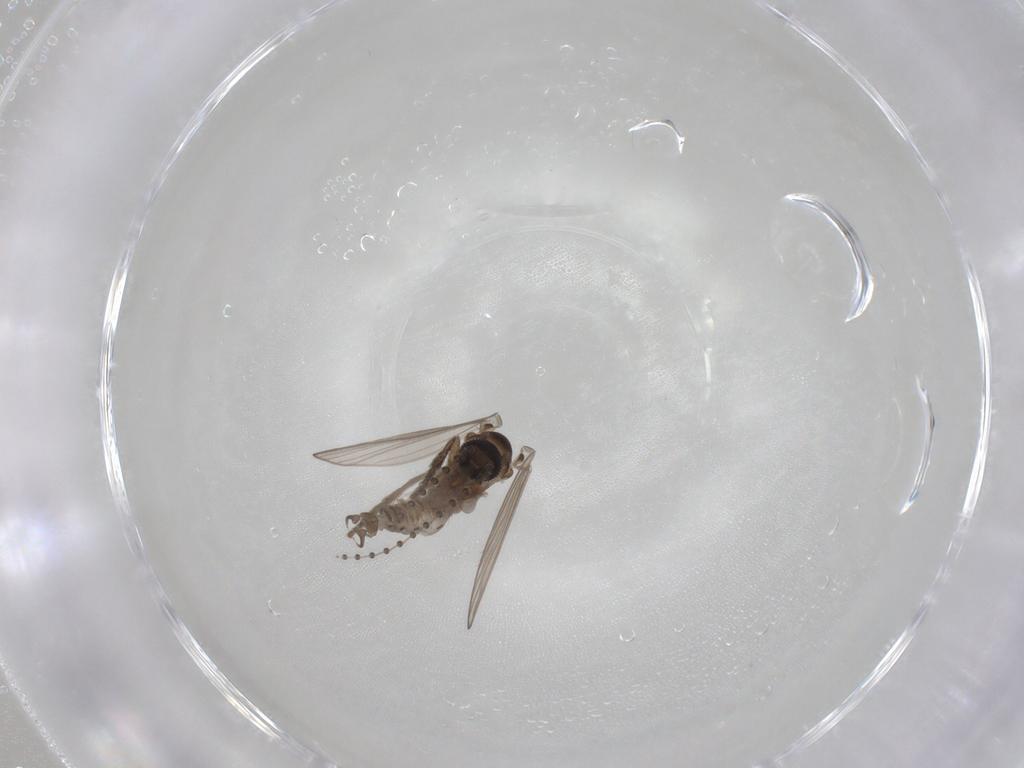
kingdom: Animalia
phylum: Arthropoda
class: Insecta
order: Diptera
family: Psychodidae
